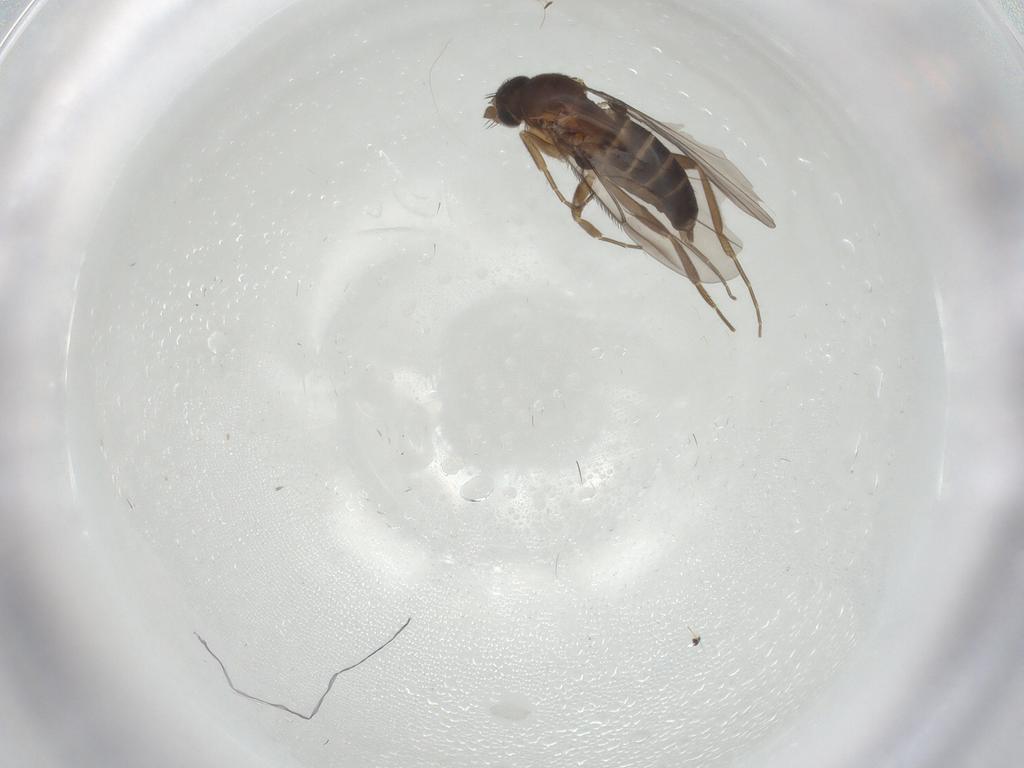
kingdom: Animalia
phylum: Arthropoda
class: Insecta
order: Diptera
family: Phoridae
